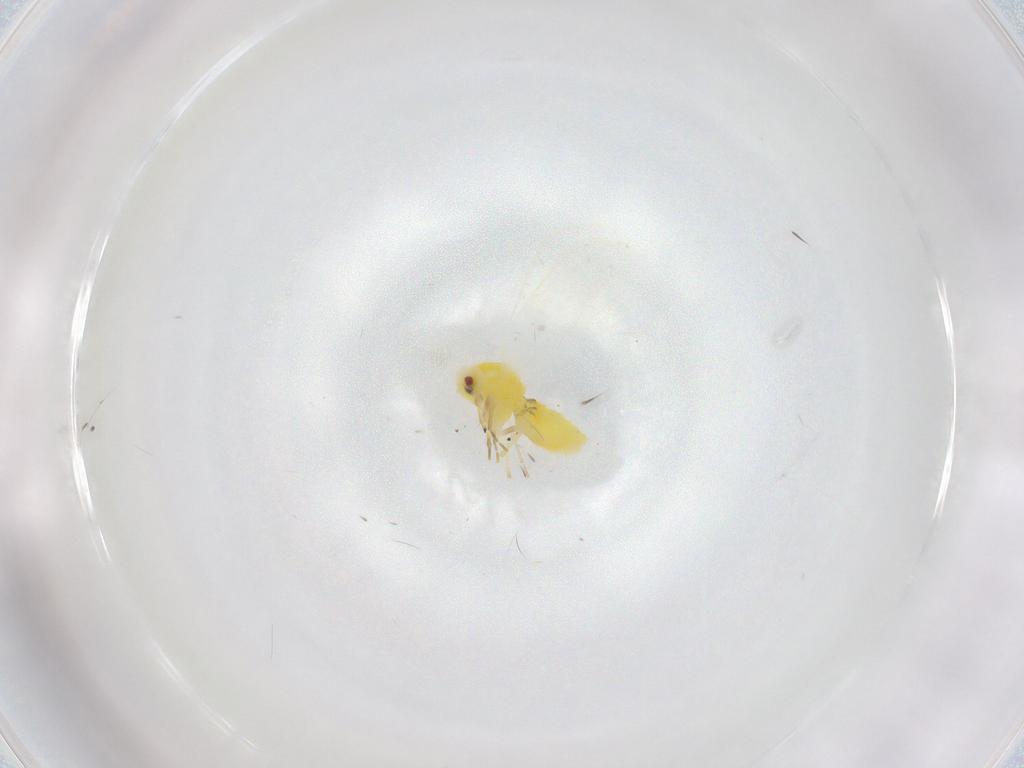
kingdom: Animalia
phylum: Arthropoda
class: Insecta
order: Hemiptera
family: Aleyrodidae
